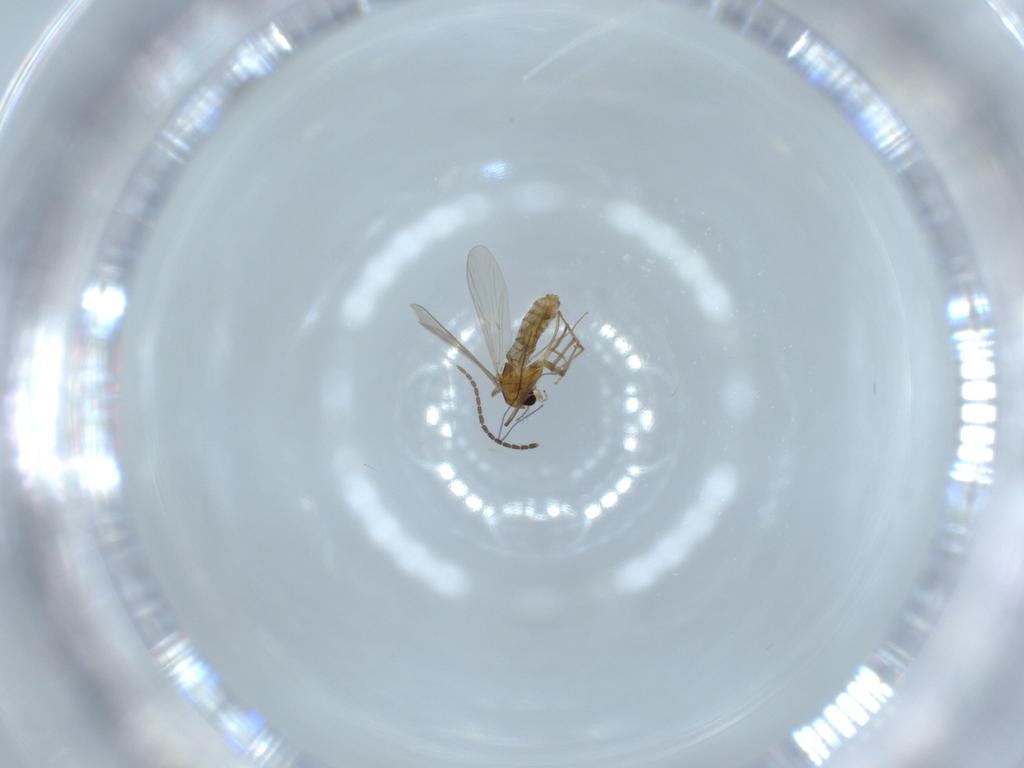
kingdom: Animalia
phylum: Arthropoda
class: Insecta
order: Diptera
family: Chironomidae
